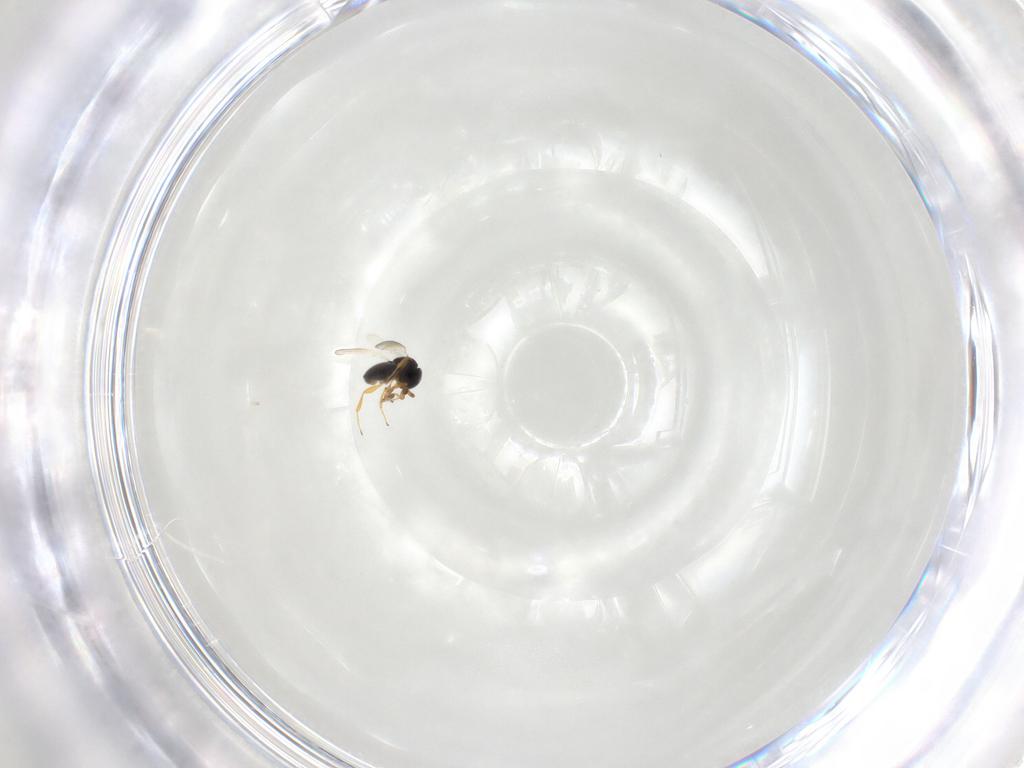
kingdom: Animalia
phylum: Arthropoda
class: Insecta
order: Hymenoptera
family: Platygastridae
